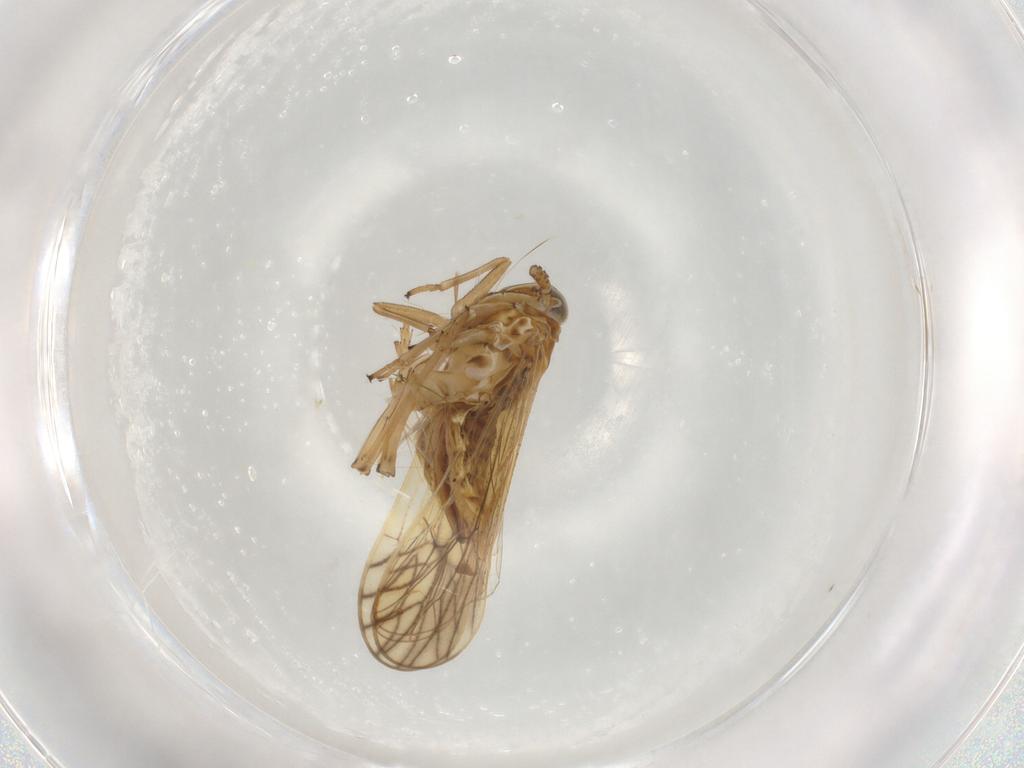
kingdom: Animalia
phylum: Arthropoda
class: Insecta
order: Hemiptera
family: Delphacidae
